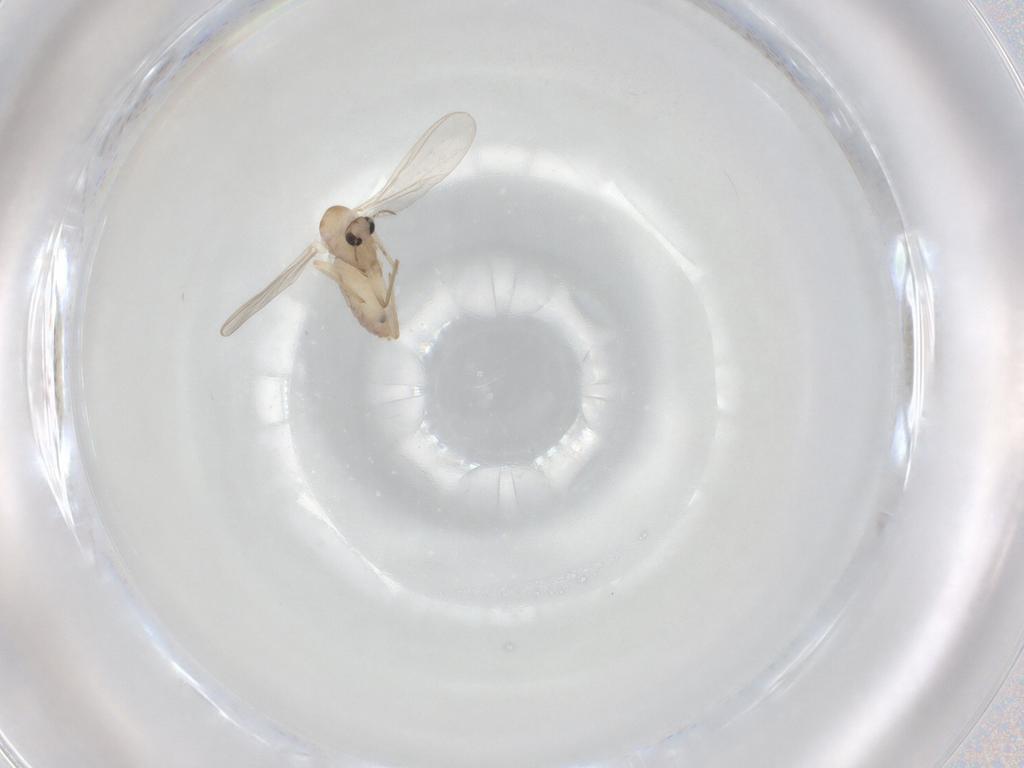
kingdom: Animalia
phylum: Arthropoda
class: Insecta
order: Diptera
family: Chironomidae
